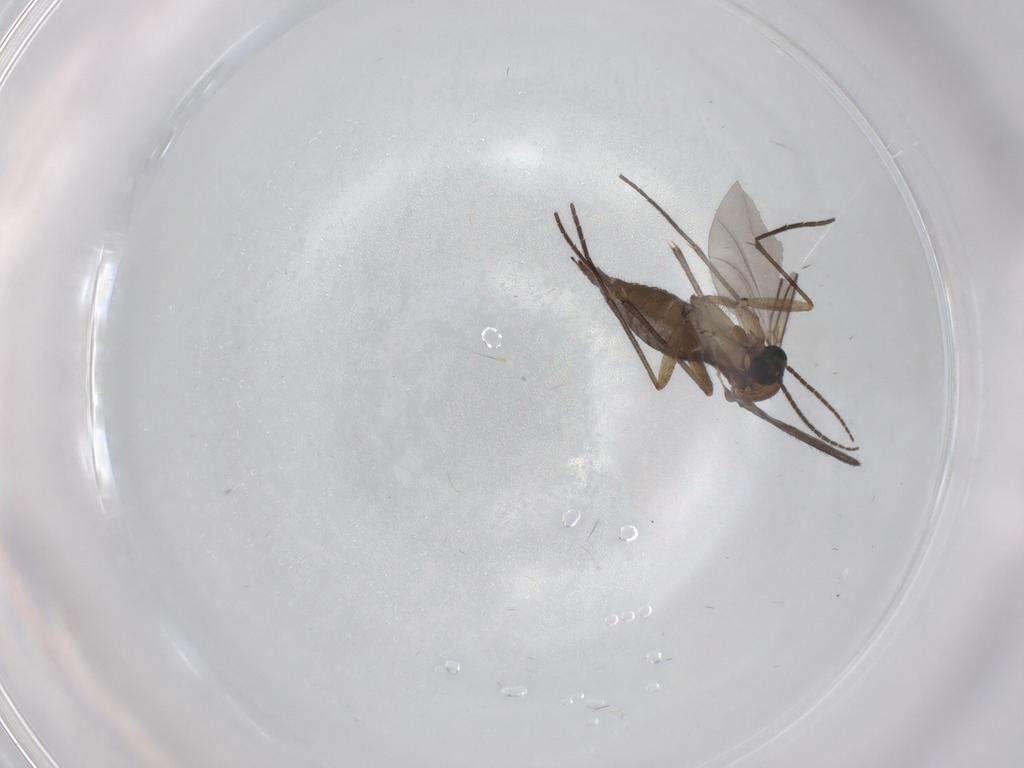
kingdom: Animalia
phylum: Arthropoda
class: Insecta
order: Diptera
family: Sciaridae
